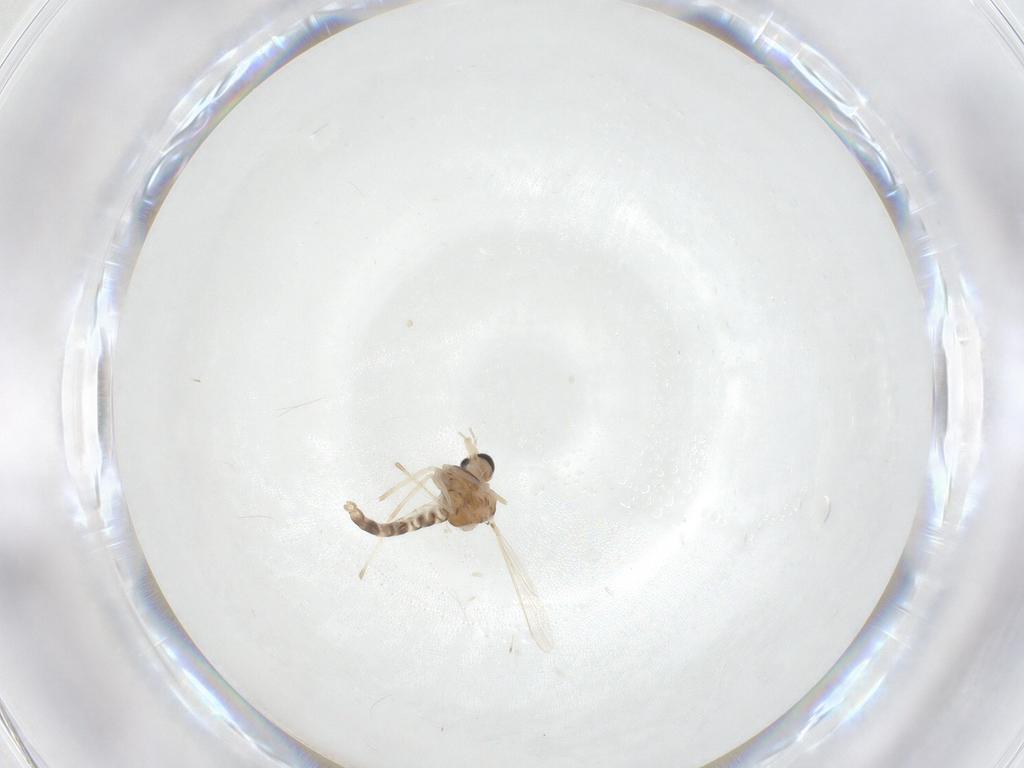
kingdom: Animalia
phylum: Arthropoda
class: Insecta
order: Diptera
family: Chironomidae
